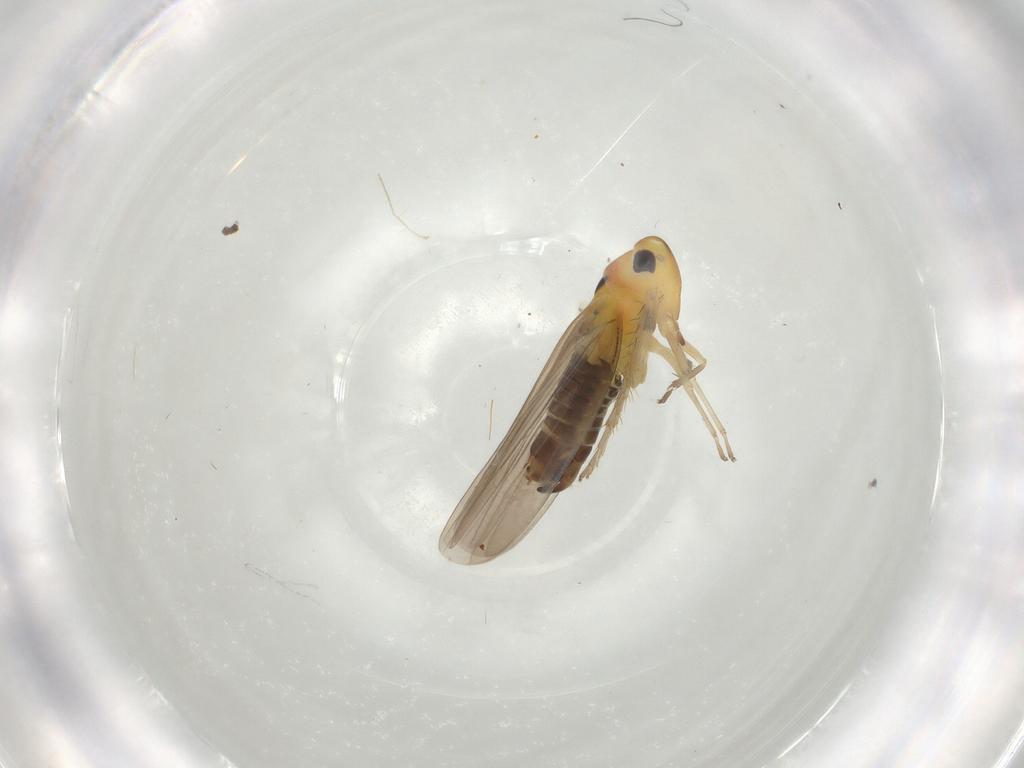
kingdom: Animalia
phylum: Arthropoda
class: Insecta
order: Hemiptera
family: Cicadellidae
